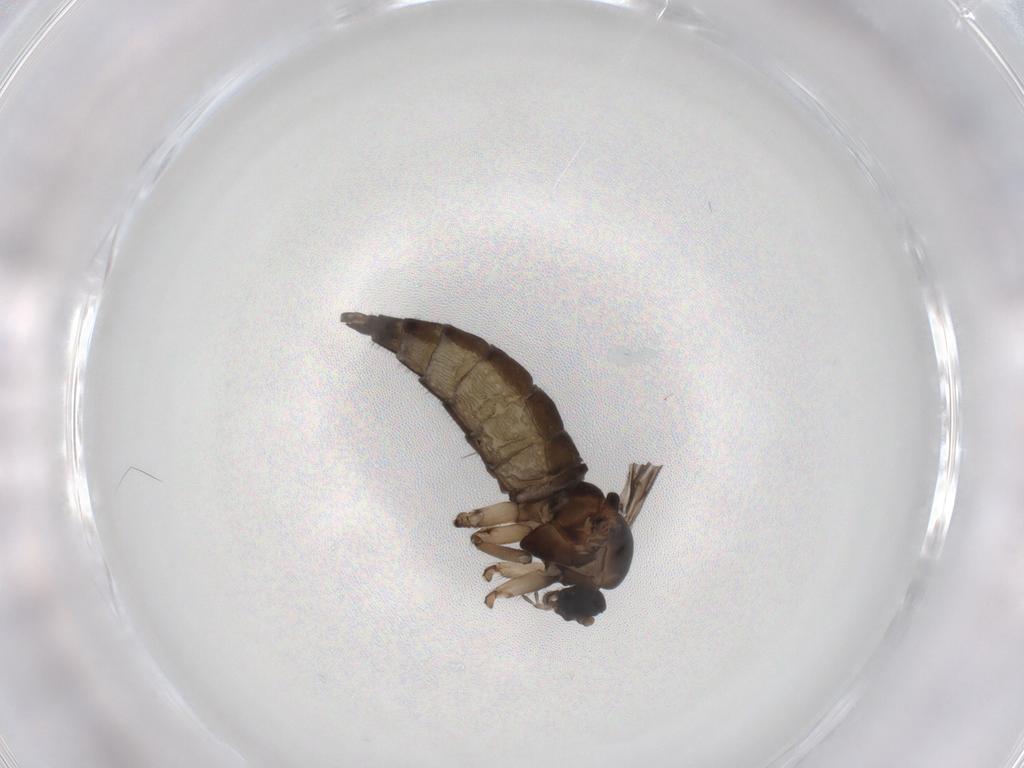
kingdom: Animalia
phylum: Arthropoda
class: Insecta
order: Diptera
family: Sciaridae
